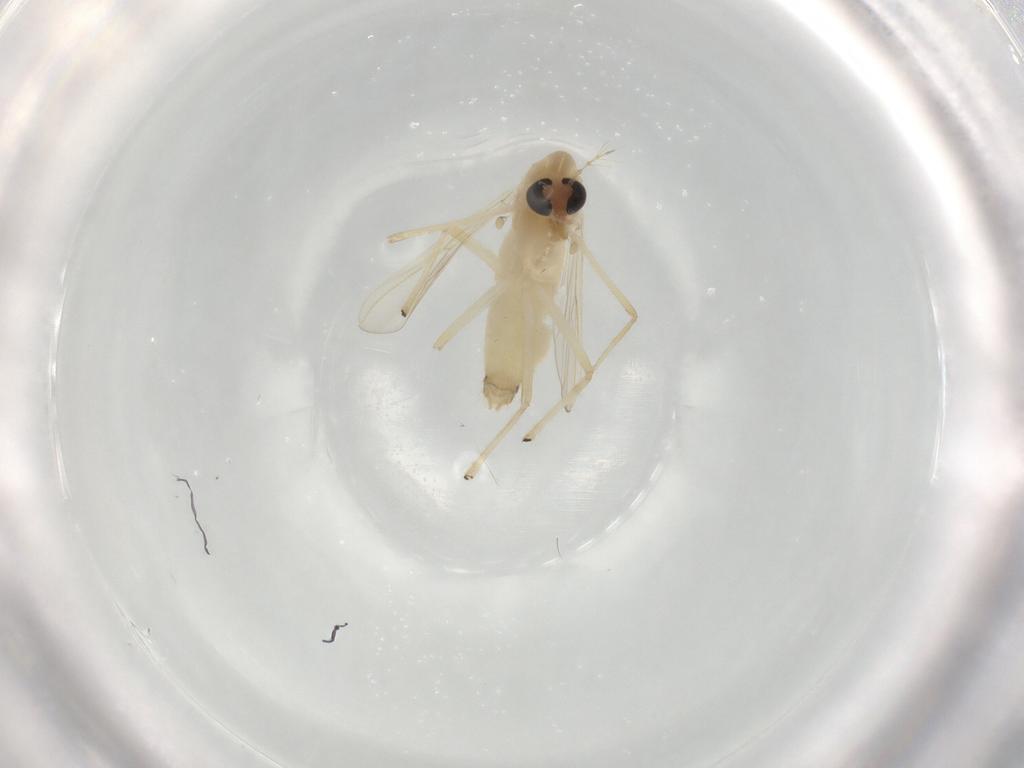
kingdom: Animalia
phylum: Arthropoda
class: Insecta
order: Diptera
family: Chironomidae
